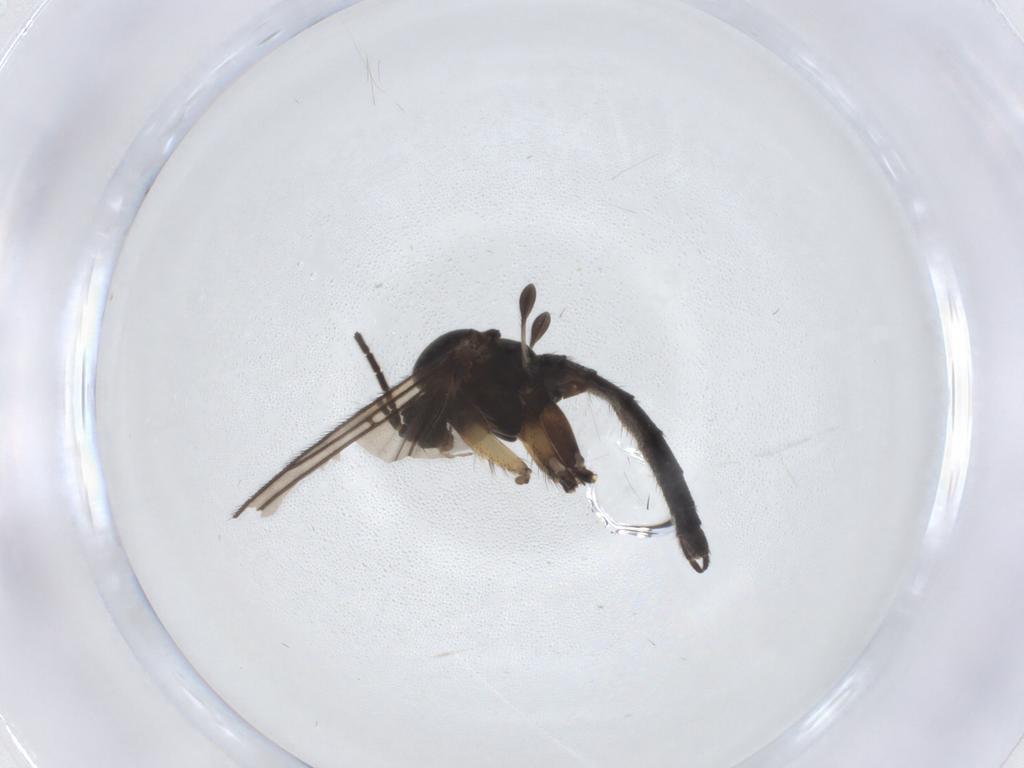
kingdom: Animalia
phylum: Arthropoda
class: Insecta
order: Diptera
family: Sciaridae
